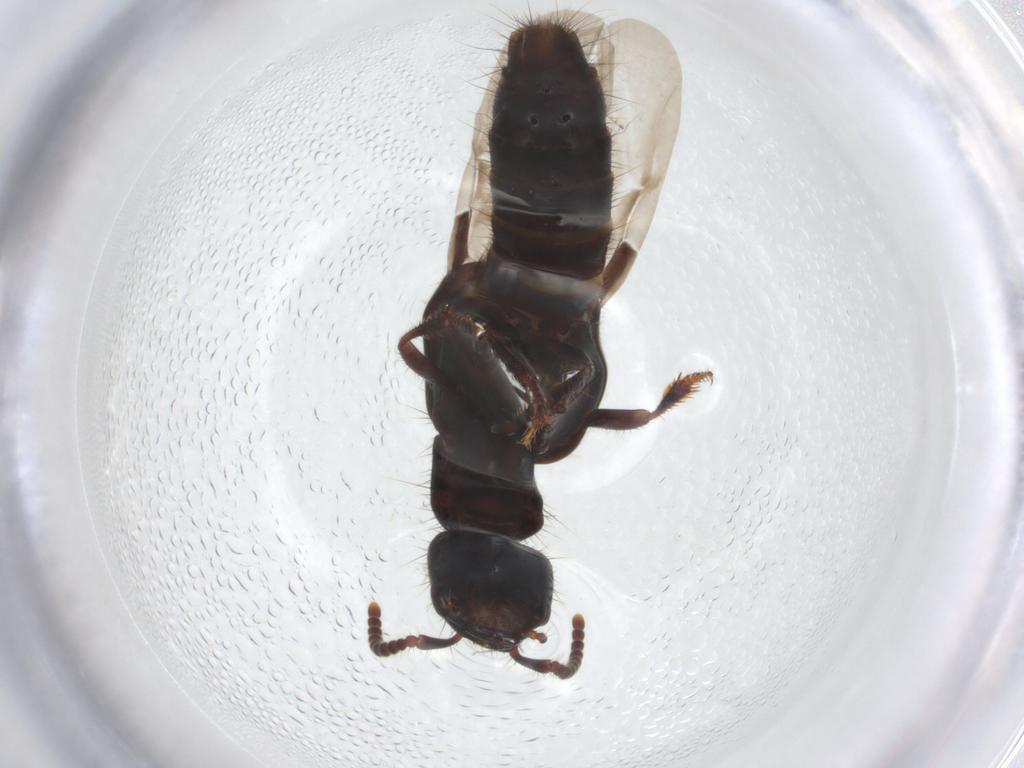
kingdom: Animalia
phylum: Arthropoda
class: Insecta
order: Coleoptera
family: Staphylinidae
